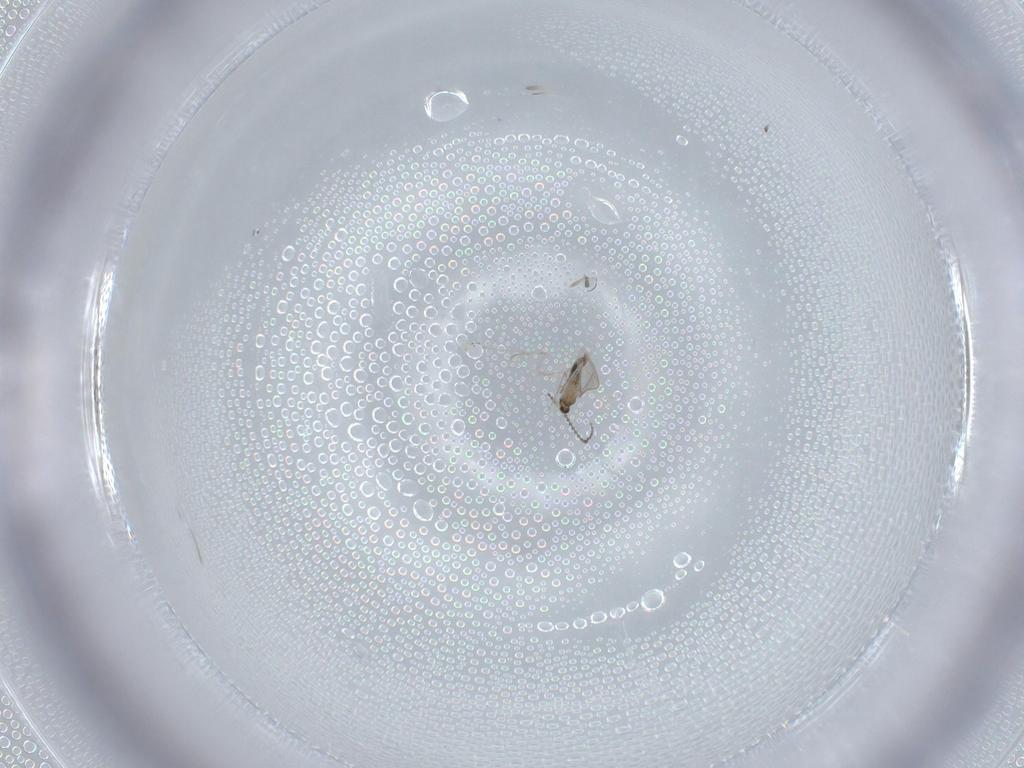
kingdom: Animalia
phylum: Arthropoda
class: Insecta
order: Diptera
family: Cecidomyiidae
